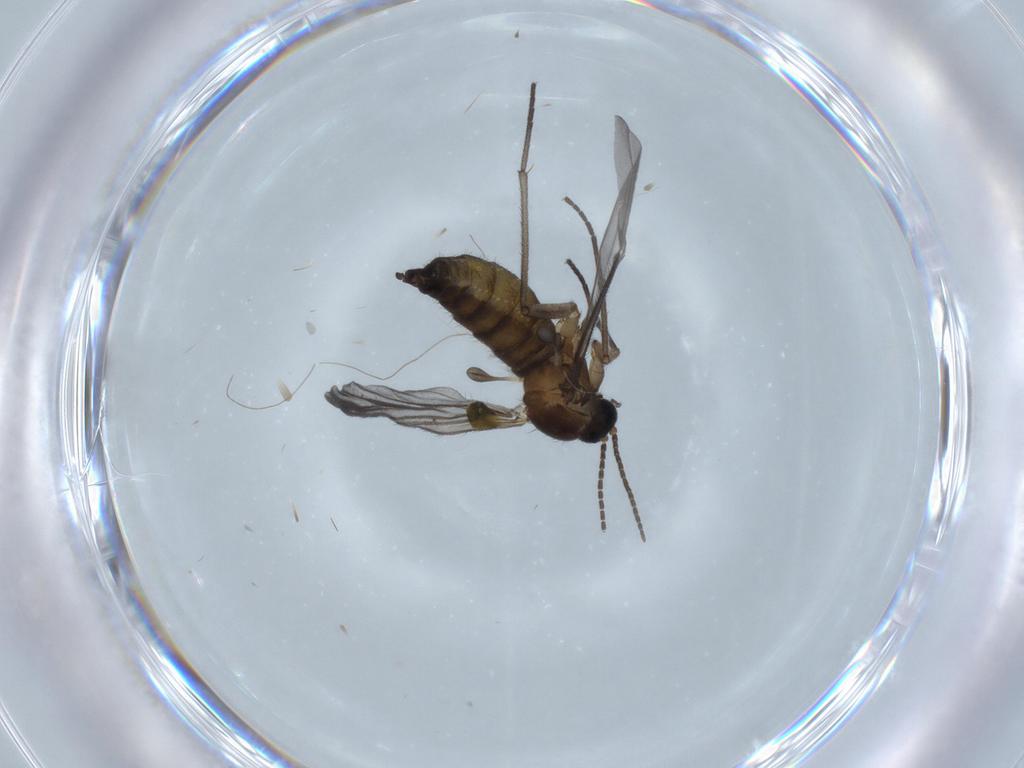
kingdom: Animalia
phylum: Arthropoda
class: Insecta
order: Diptera
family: Sciaridae
